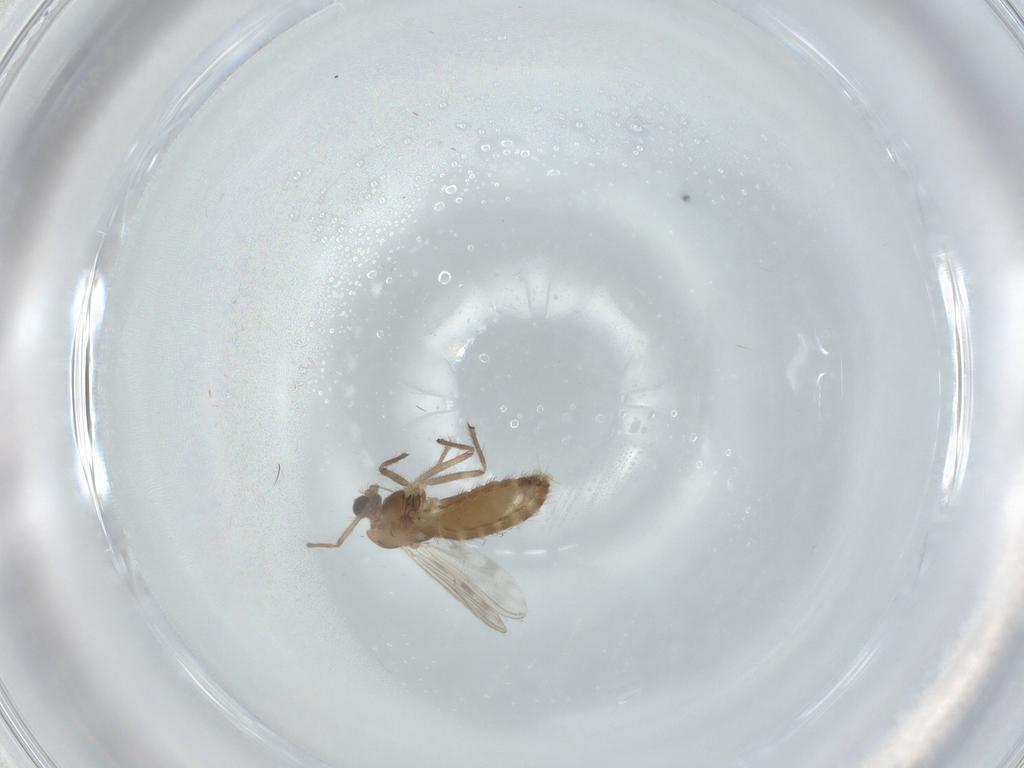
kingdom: Animalia
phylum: Arthropoda
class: Insecta
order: Diptera
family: Chironomidae
